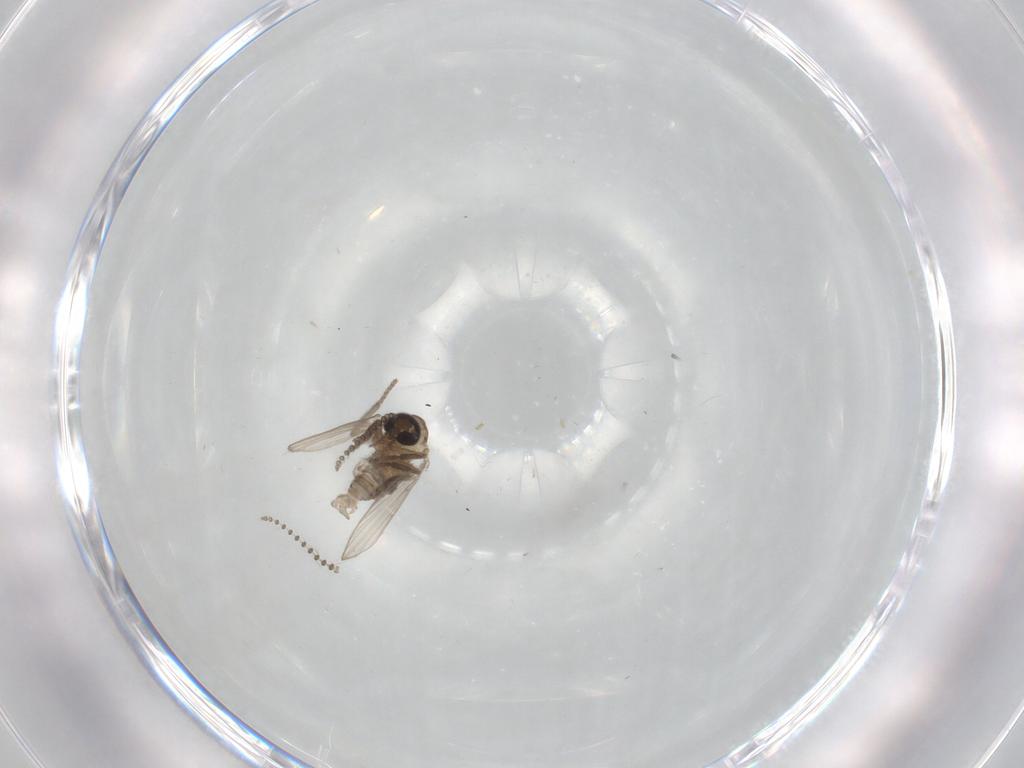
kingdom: Animalia
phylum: Arthropoda
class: Insecta
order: Diptera
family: Psychodidae
